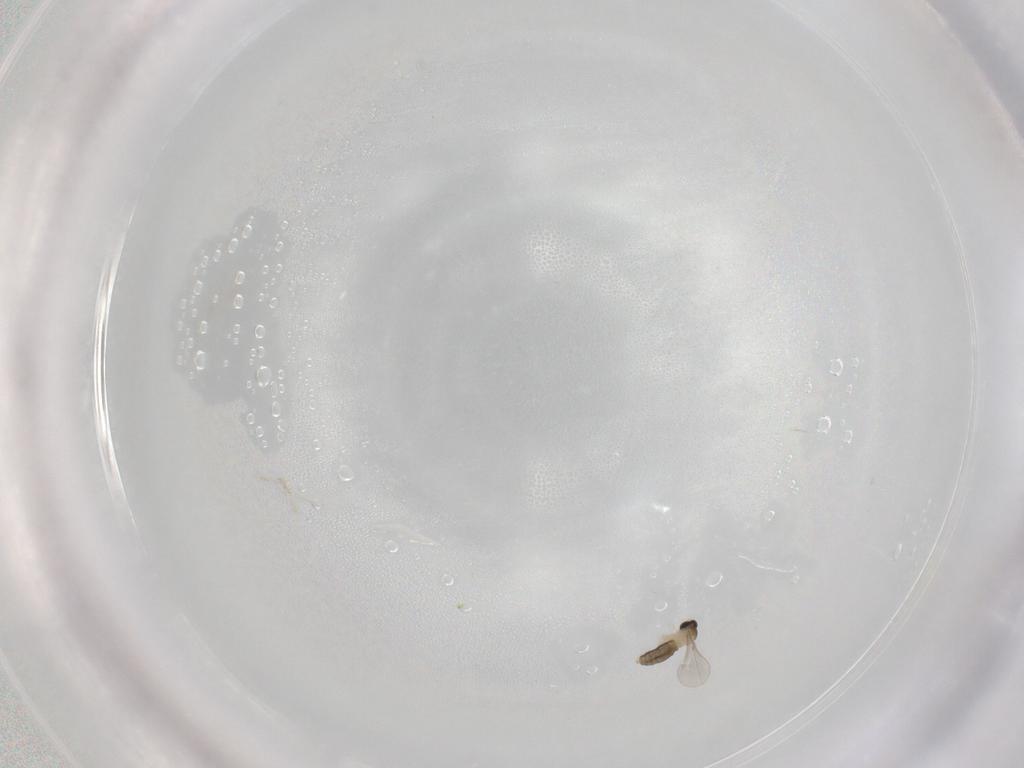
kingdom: Animalia
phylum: Arthropoda
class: Insecta
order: Diptera
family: Cecidomyiidae
